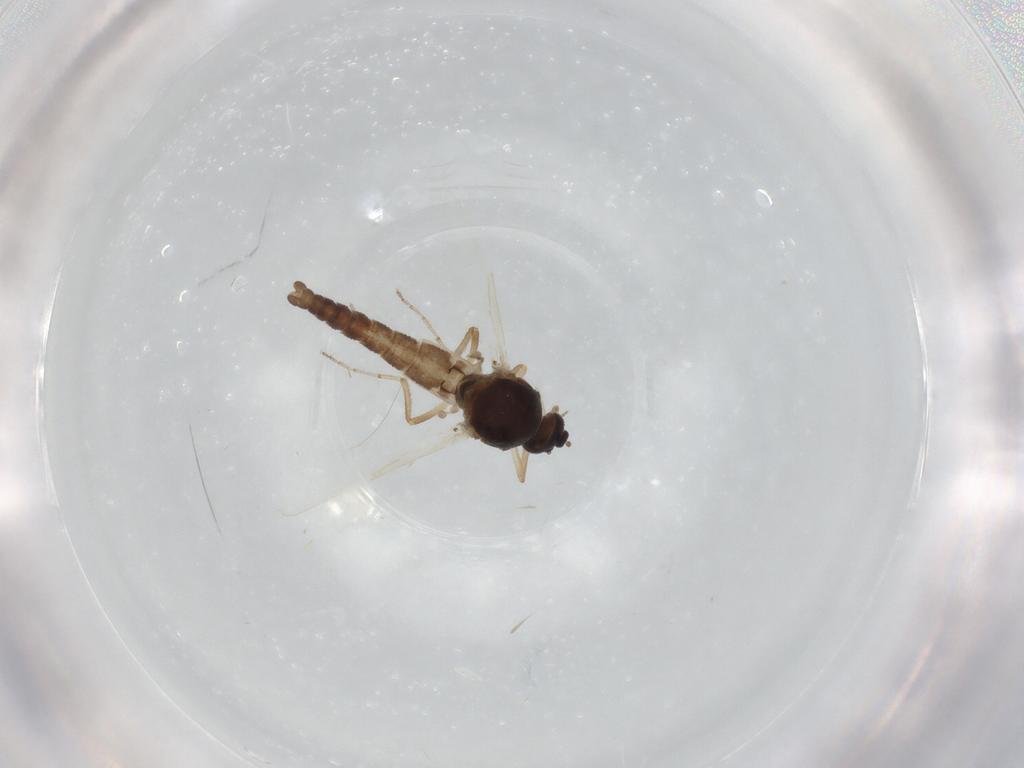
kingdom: Animalia
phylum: Arthropoda
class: Insecta
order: Diptera
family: Ceratopogonidae
